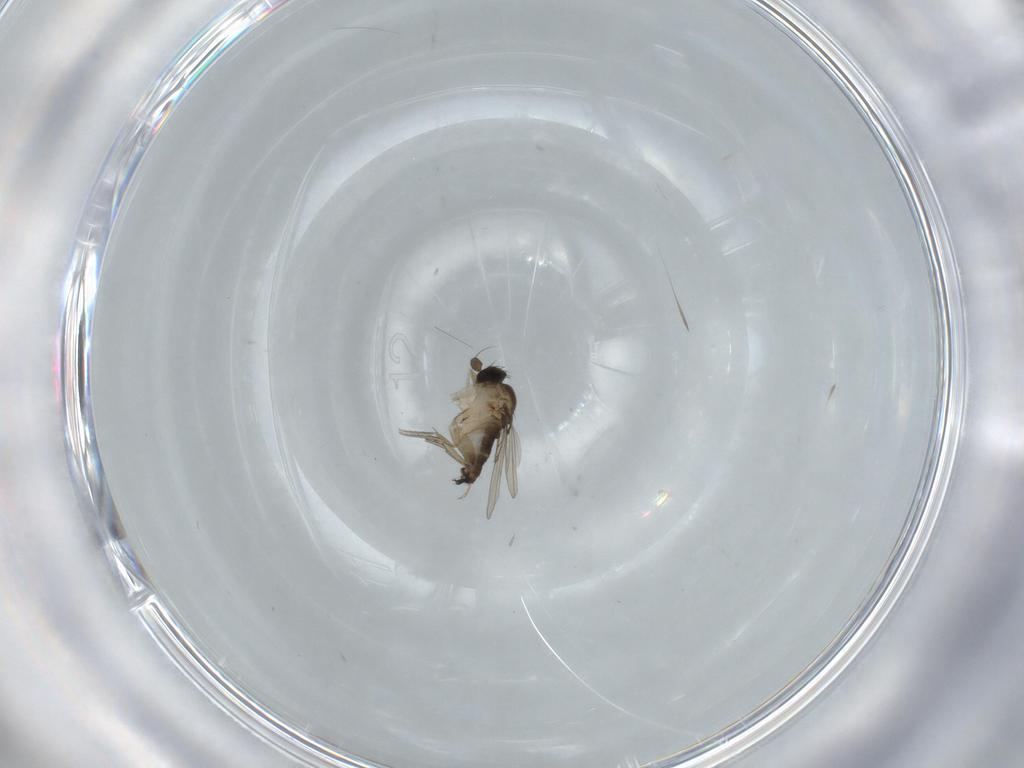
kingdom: Animalia
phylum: Arthropoda
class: Insecta
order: Diptera
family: Phoridae
